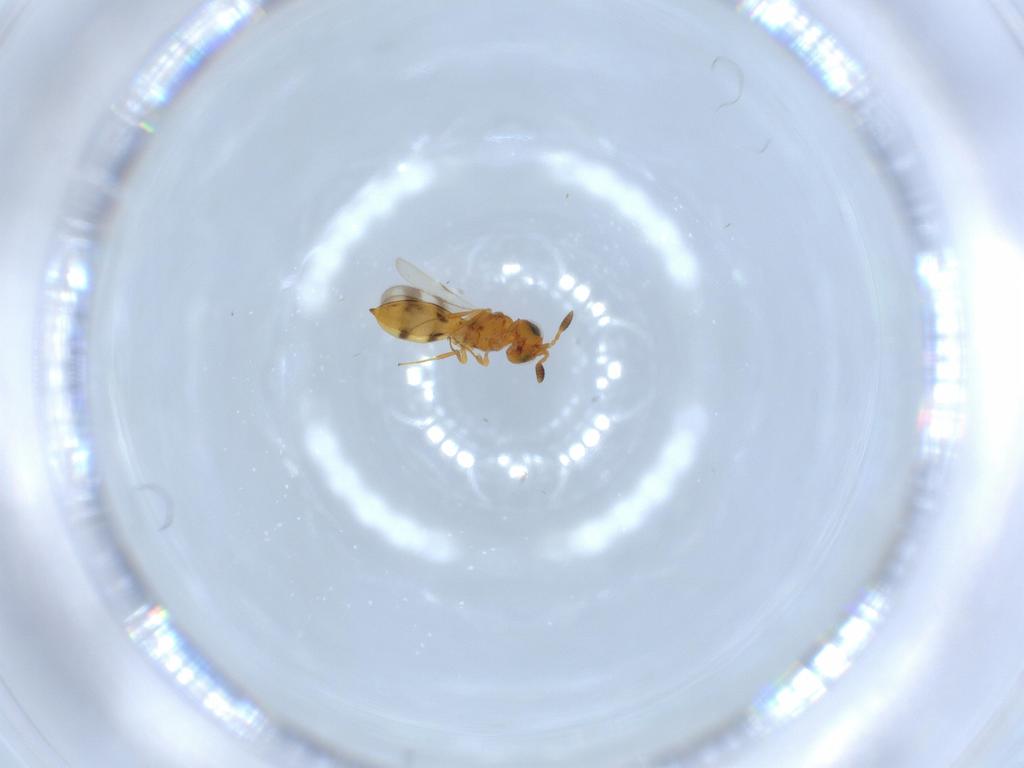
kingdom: Animalia
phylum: Arthropoda
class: Insecta
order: Hymenoptera
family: Scelionidae
